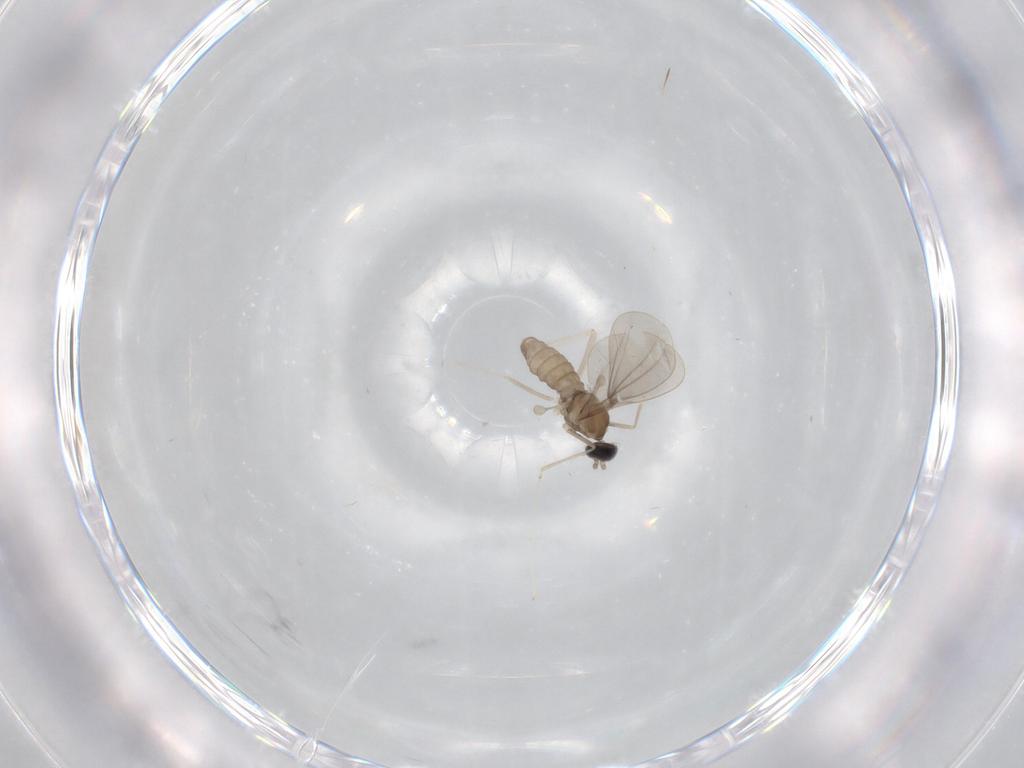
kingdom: Animalia
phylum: Arthropoda
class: Insecta
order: Diptera
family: Cecidomyiidae
